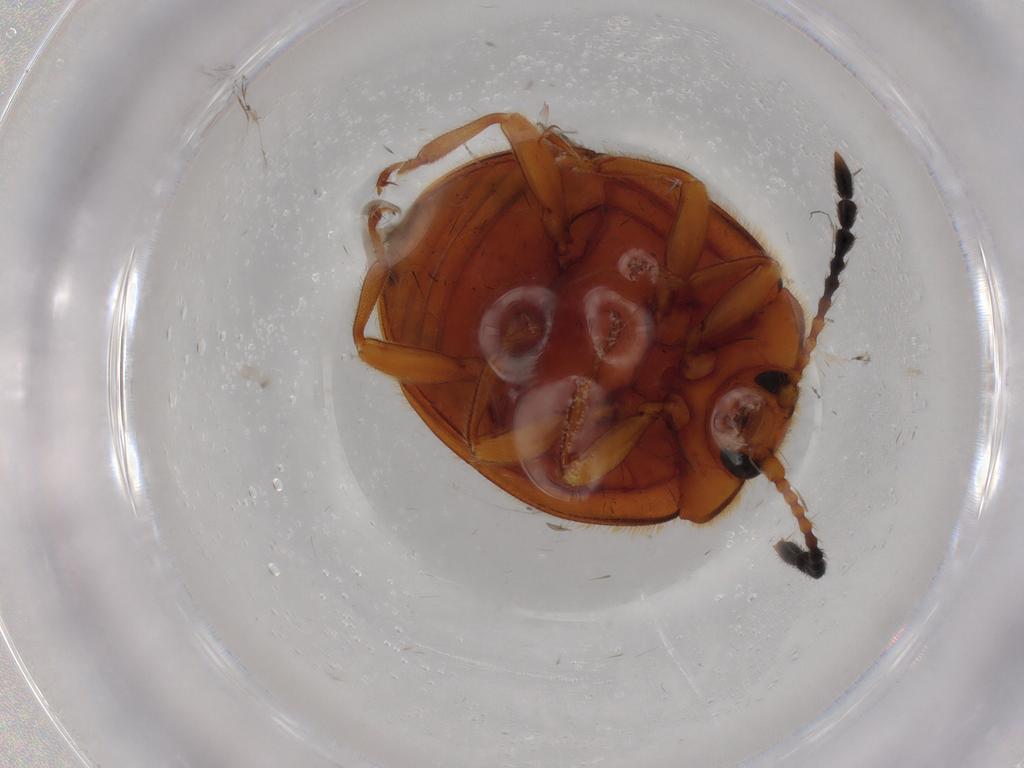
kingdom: Animalia
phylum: Arthropoda
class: Insecta
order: Coleoptera
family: Endomychidae
